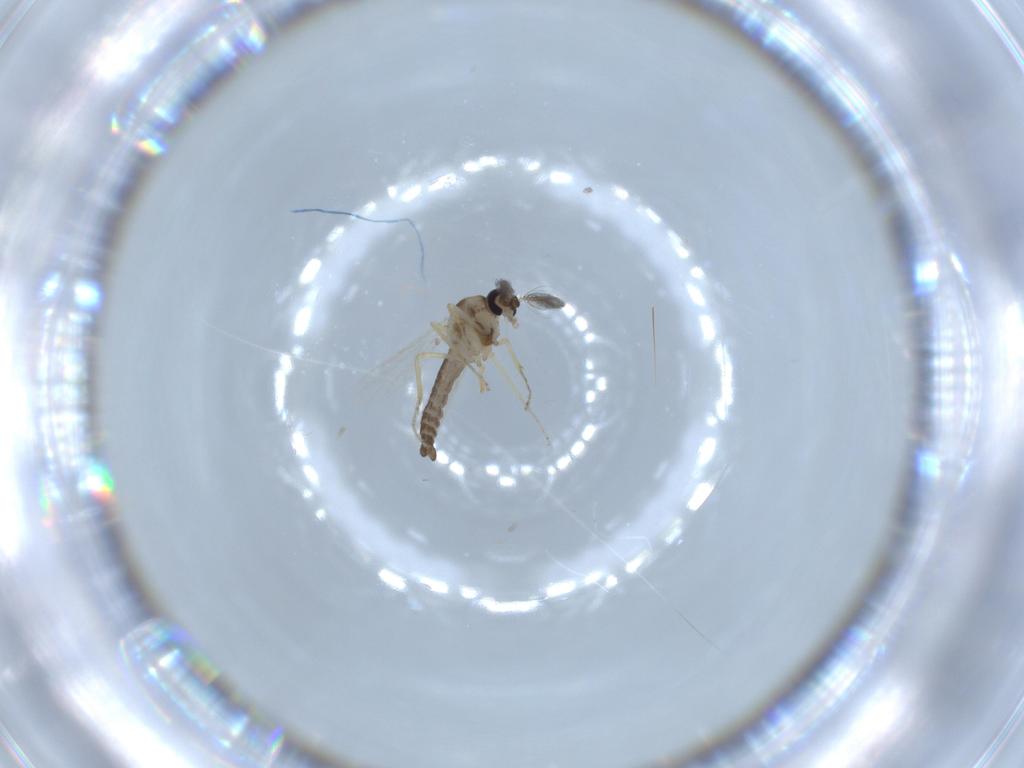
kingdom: Animalia
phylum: Arthropoda
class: Insecta
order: Diptera
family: Ceratopogonidae
